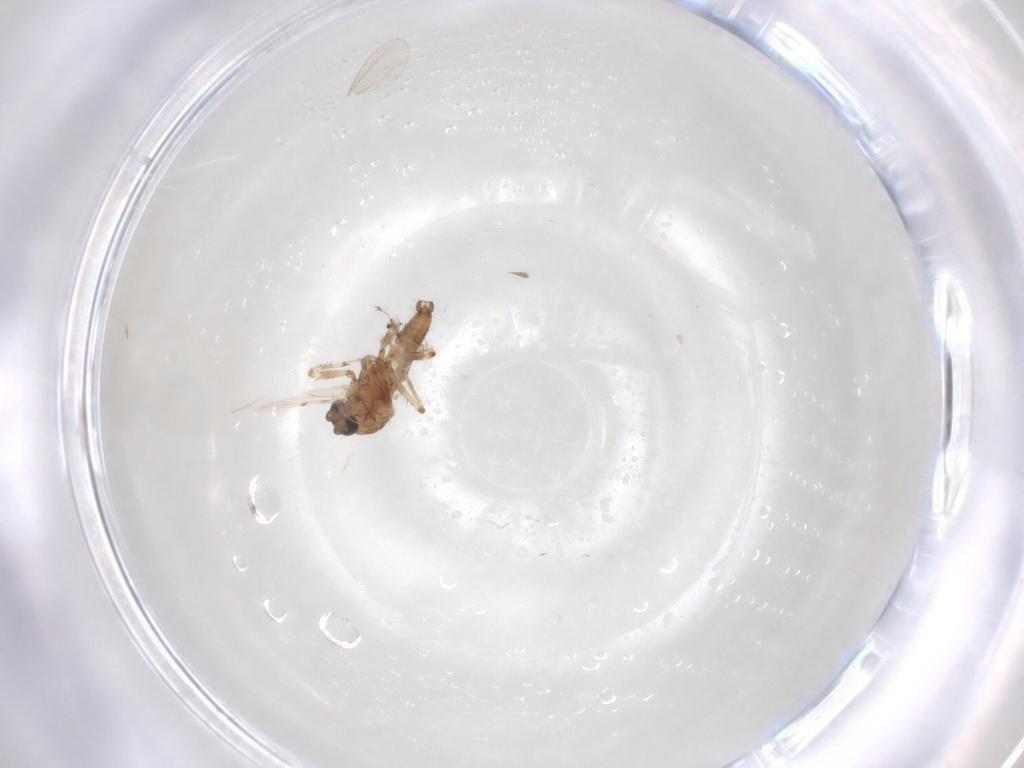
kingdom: Animalia
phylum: Arthropoda
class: Insecta
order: Diptera
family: Ceratopogonidae
